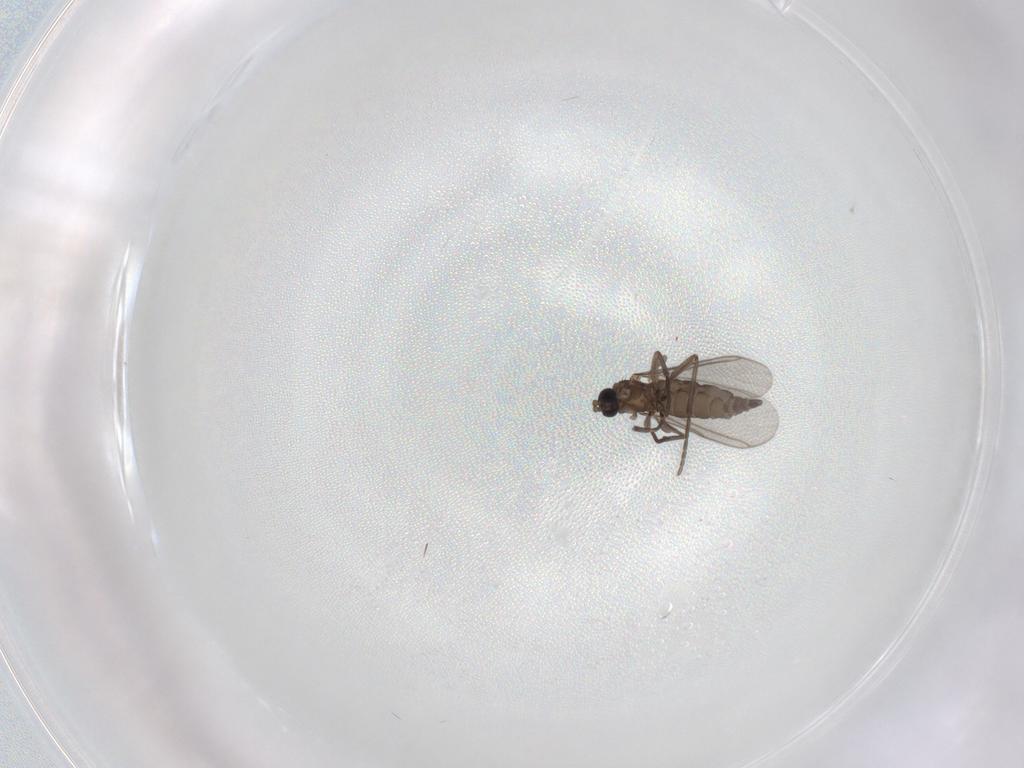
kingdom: Animalia
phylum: Arthropoda
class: Insecta
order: Diptera
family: Sciaridae
